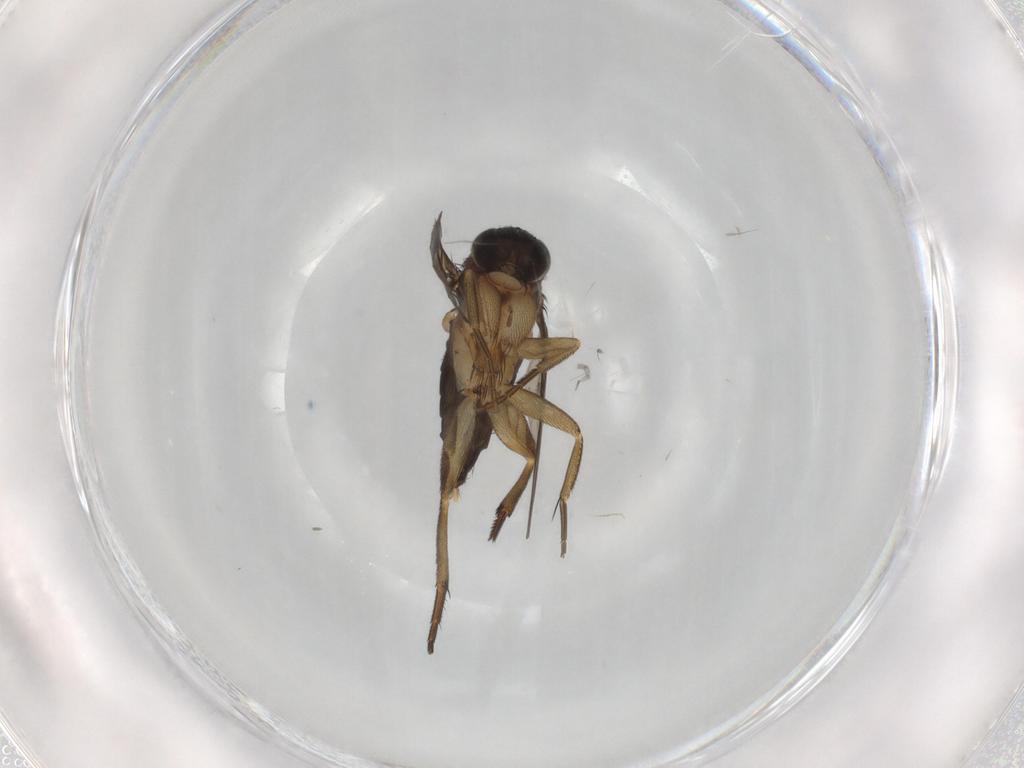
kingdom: Animalia
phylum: Arthropoda
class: Insecta
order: Diptera
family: Phoridae
